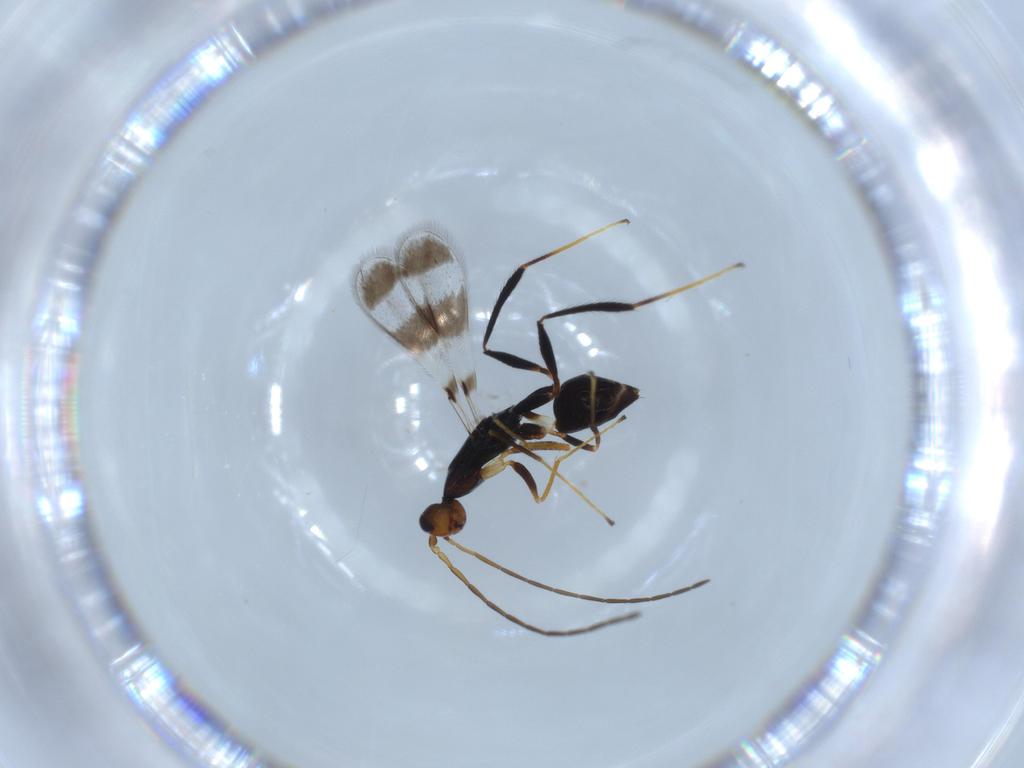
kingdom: Animalia
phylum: Arthropoda
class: Insecta
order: Hymenoptera
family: Mymaridae
